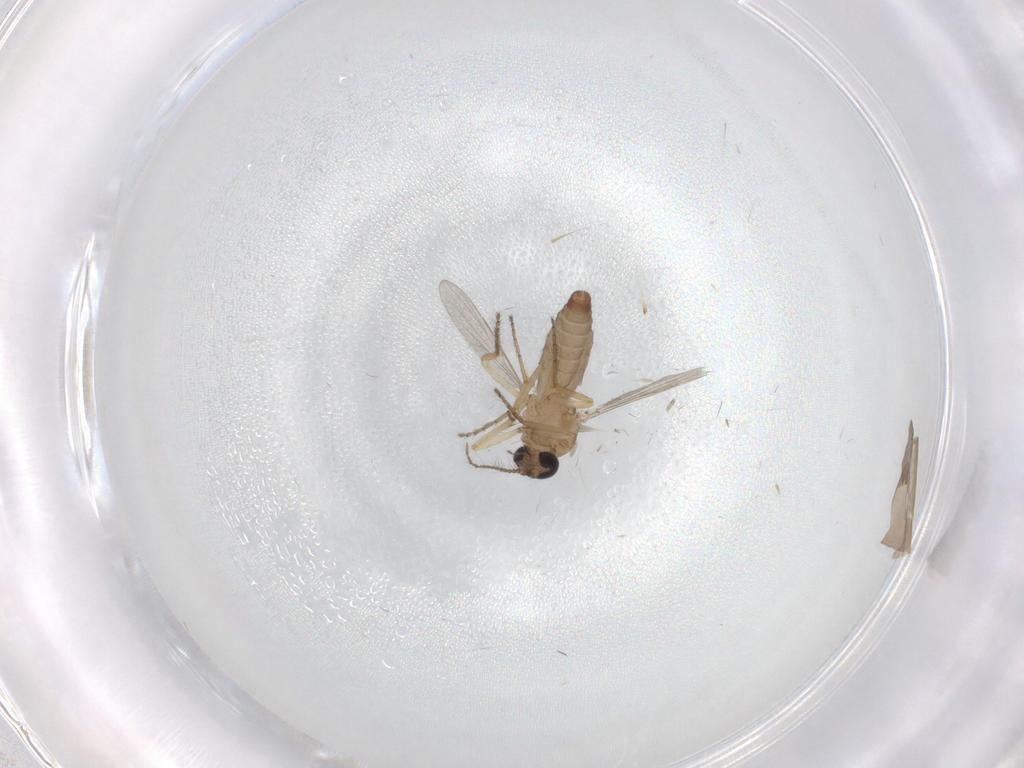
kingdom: Animalia
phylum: Arthropoda
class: Insecta
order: Diptera
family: Ceratopogonidae
